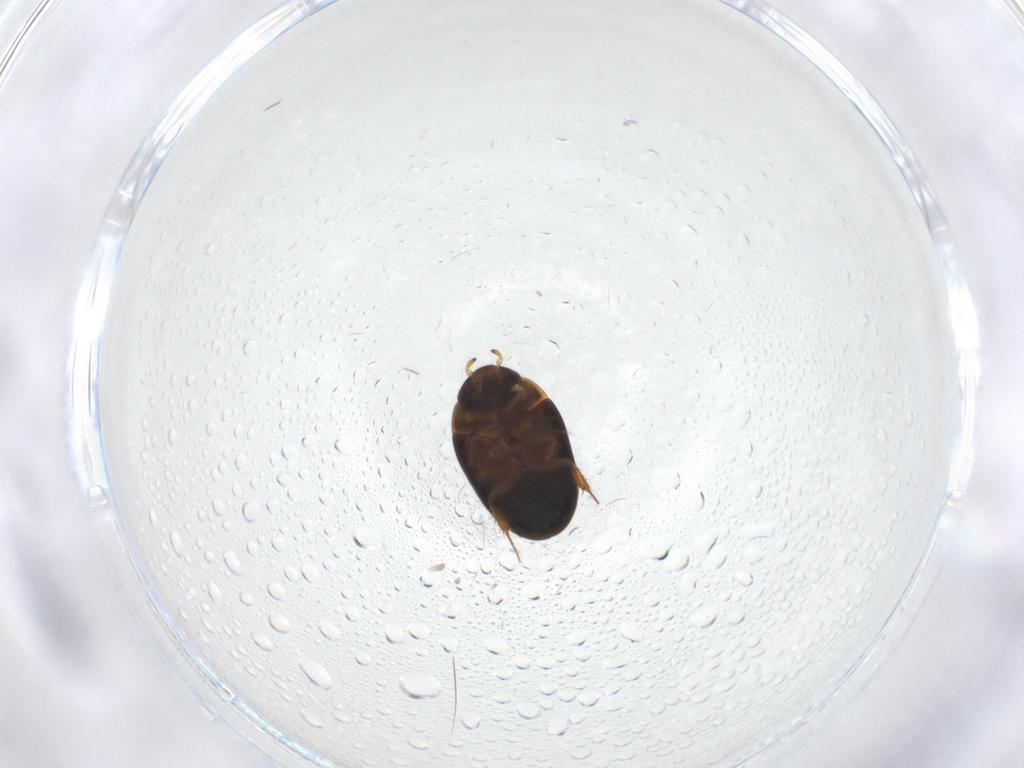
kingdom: Animalia
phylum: Arthropoda
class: Insecta
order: Coleoptera
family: Hydrophilidae
